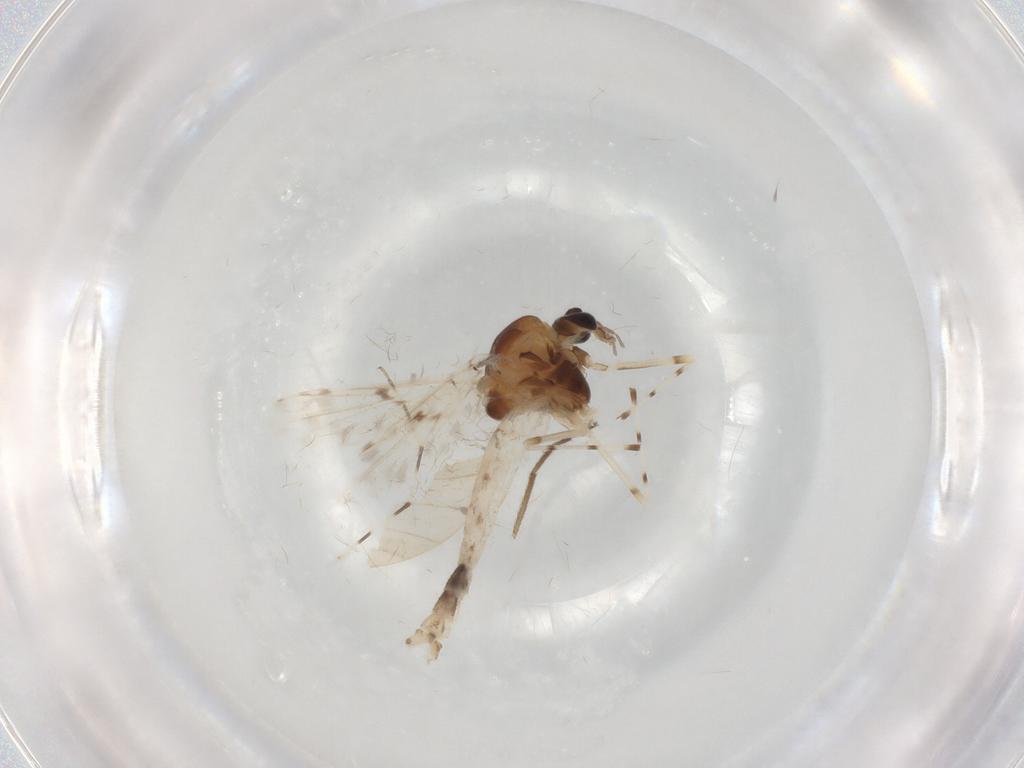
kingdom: Animalia
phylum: Arthropoda
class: Insecta
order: Diptera
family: Chironomidae
